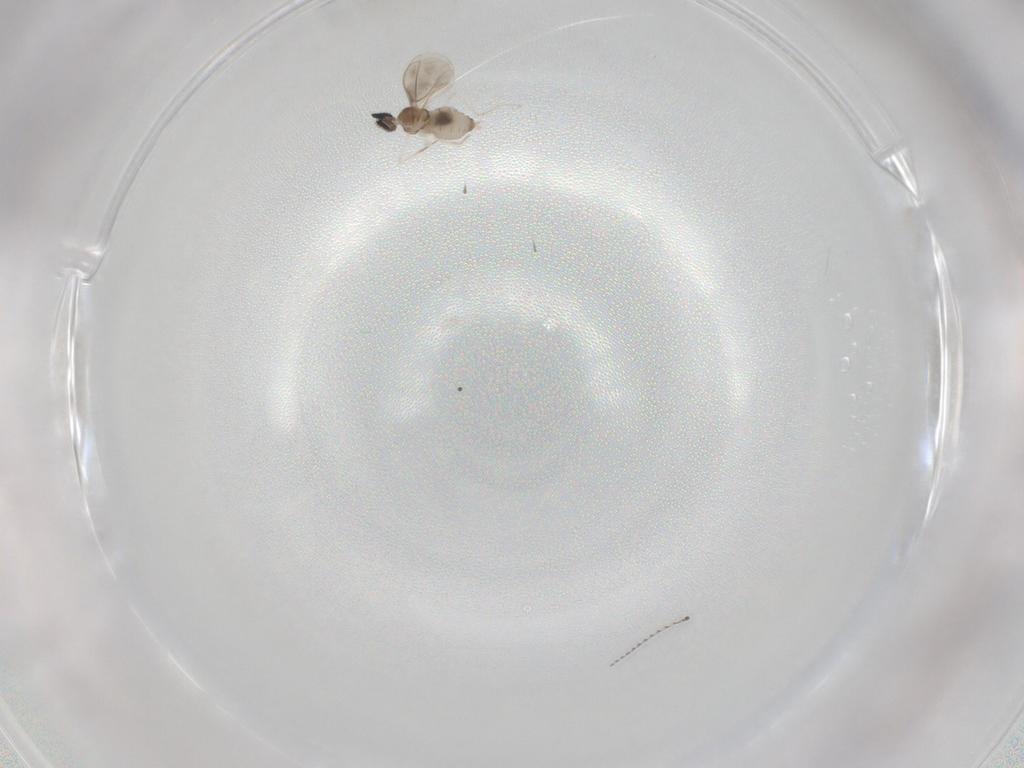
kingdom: Animalia
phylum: Arthropoda
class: Insecta
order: Diptera
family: Cecidomyiidae
